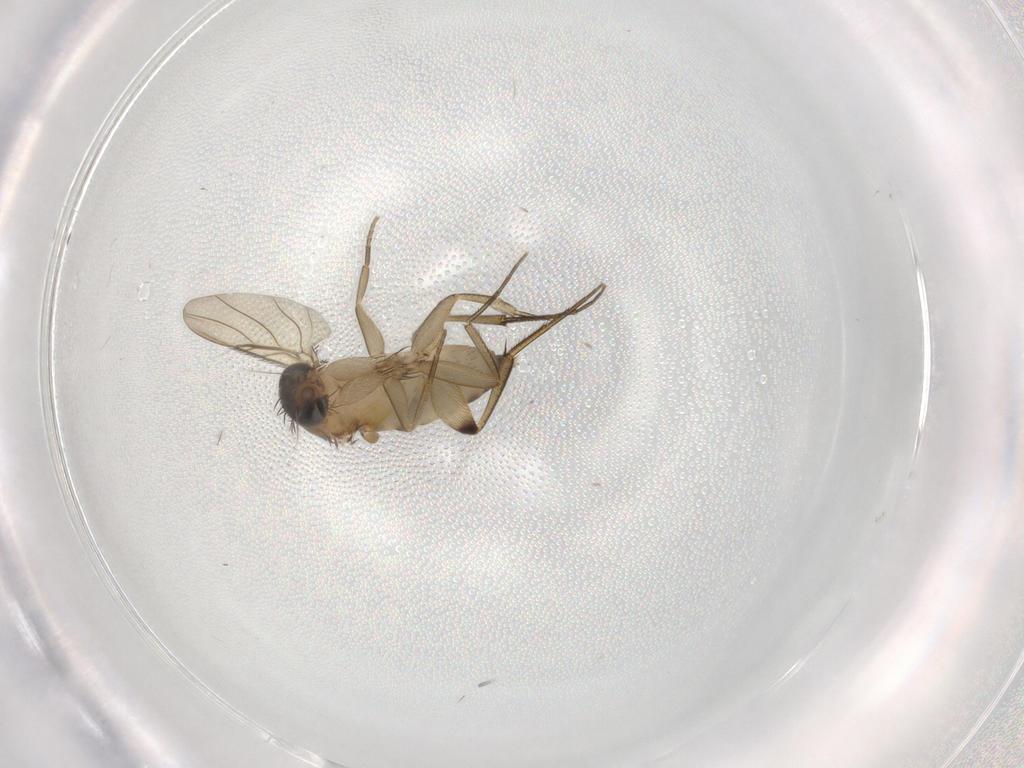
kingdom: Animalia
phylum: Arthropoda
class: Insecta
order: Diptera
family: Phoridae
